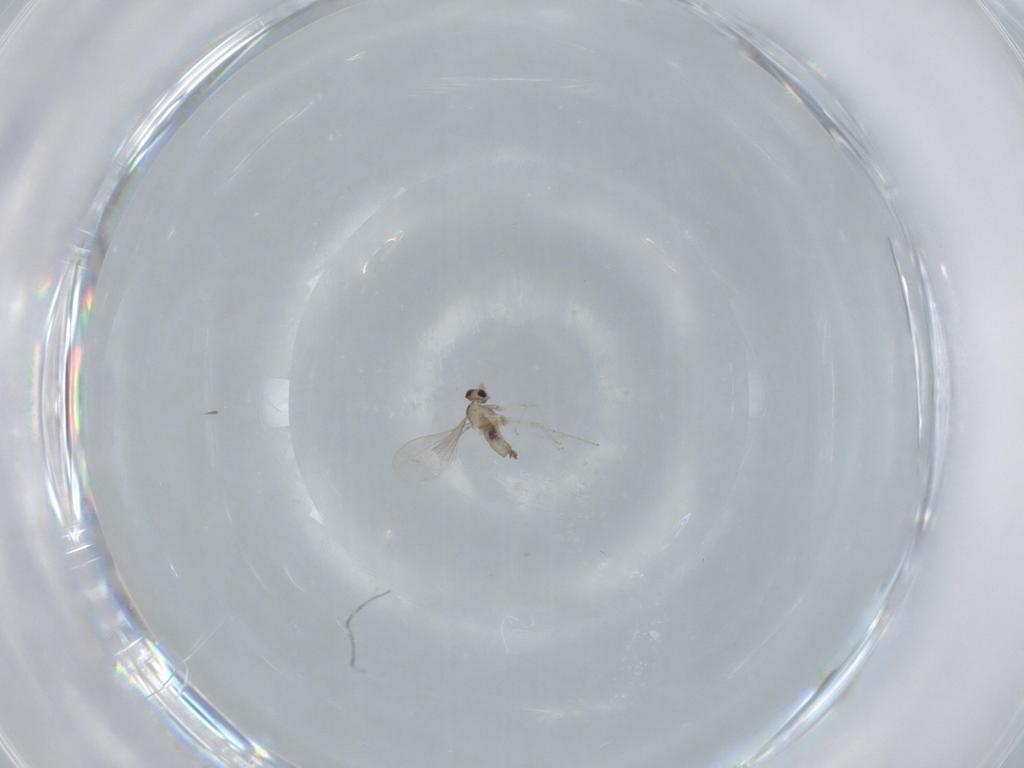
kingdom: Animalia
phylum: Arthropoda
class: Insecta
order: Diptera
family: Cecidomyiidae
